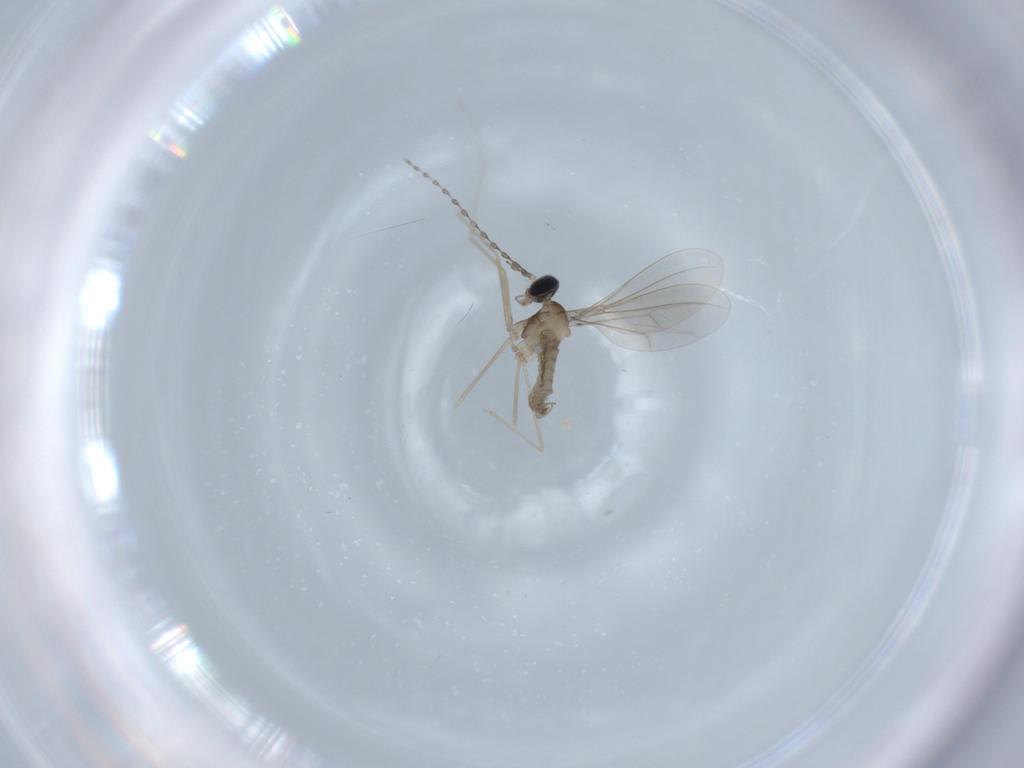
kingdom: Animalia
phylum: Arthropoda
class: Insecta
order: Diptera
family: Cecidomyiidae
